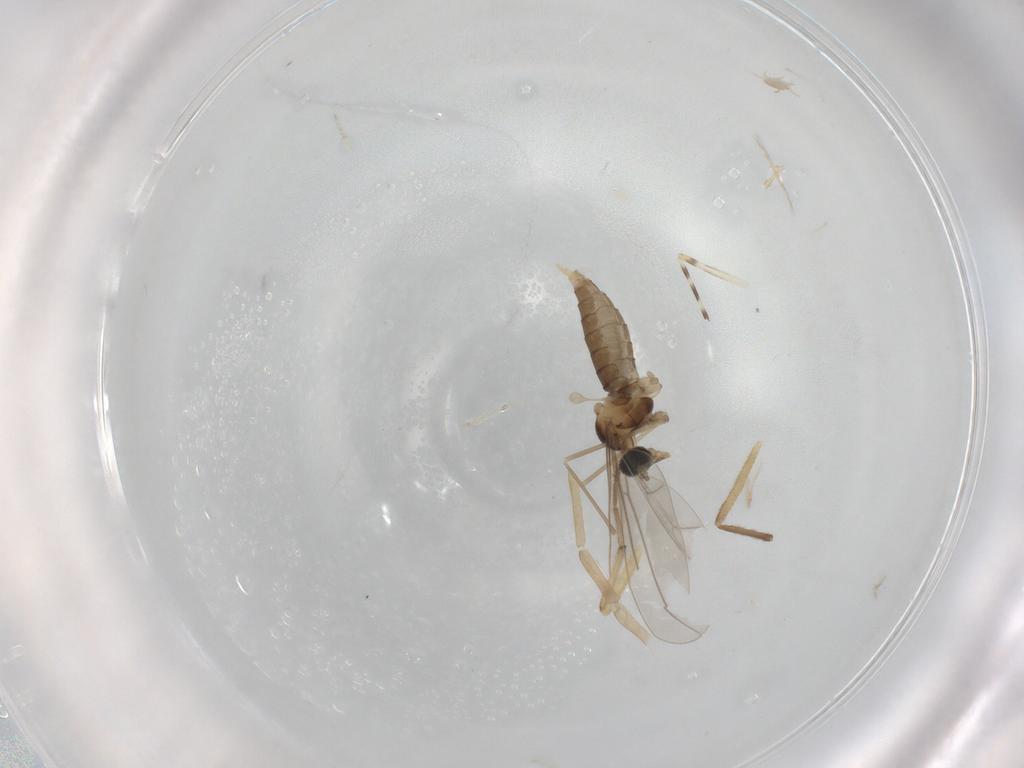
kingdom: Animalia
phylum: Arthropoda
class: Insecta
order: Diptera
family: Cecidomyiidae
